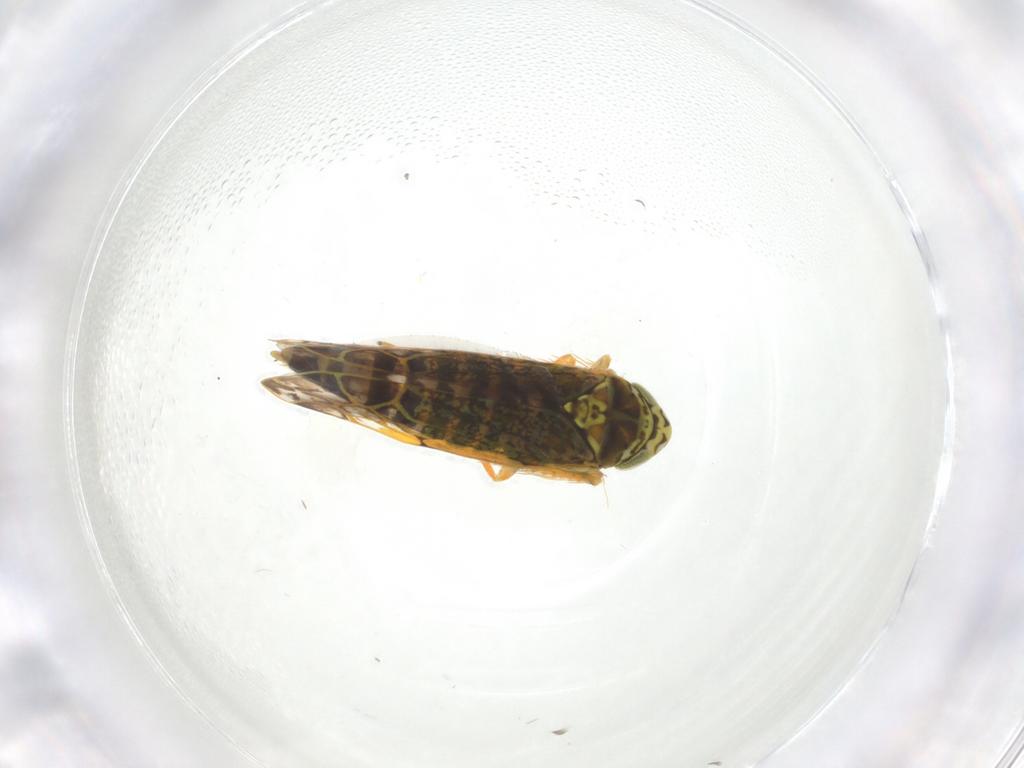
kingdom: Animalia
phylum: Arthropoda
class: Insecta
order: Hemiptera
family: Cicadellidae
